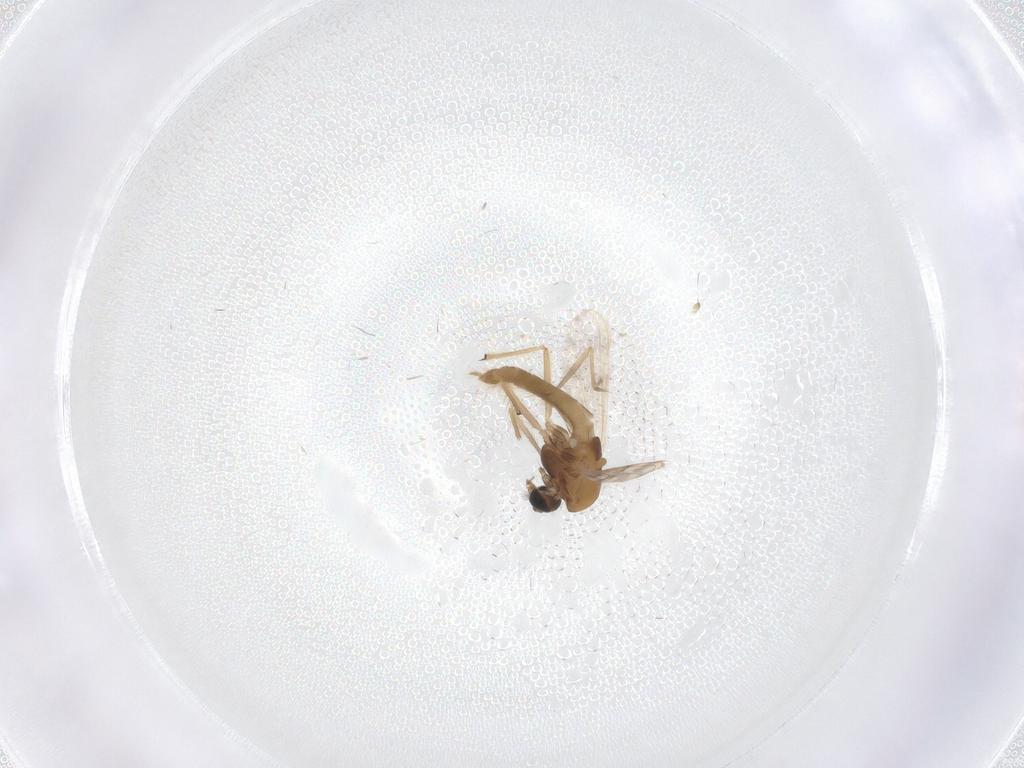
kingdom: Animalia
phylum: Arthropoda
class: Insecta
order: Diptera
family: Chironomidae
